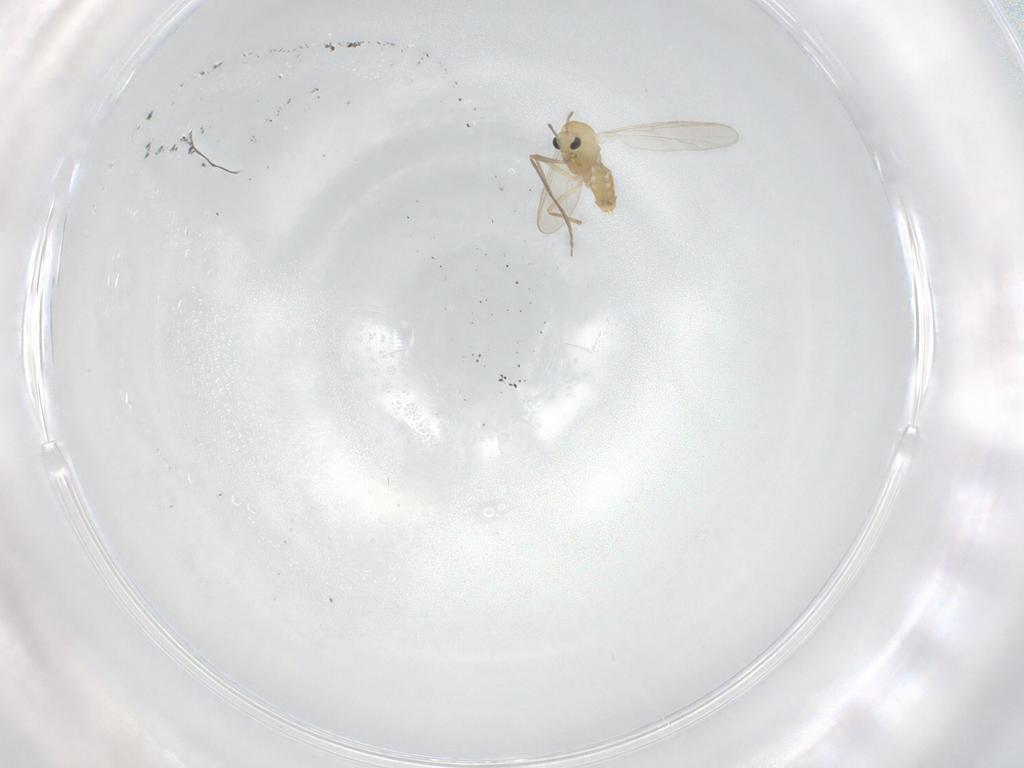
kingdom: Animalia
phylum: Arthropoda
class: Insecta
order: Diptera
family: Chironomidae
